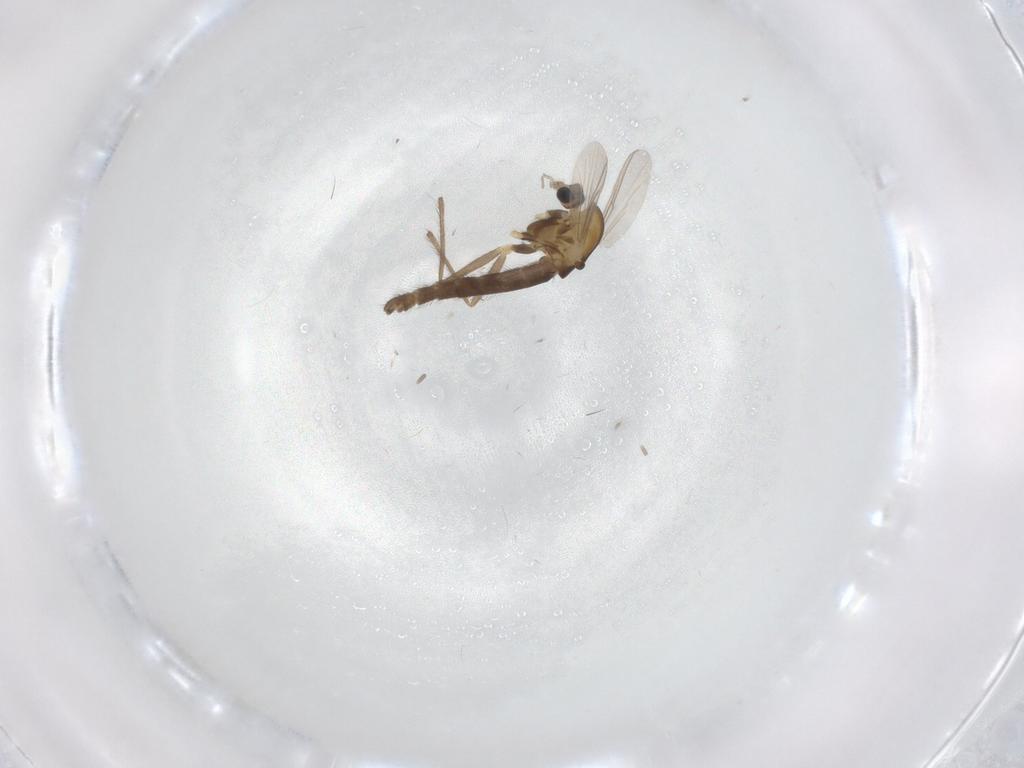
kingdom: Animalia
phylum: Arthropoda
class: Insecta
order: Diptera
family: Chironomidae
